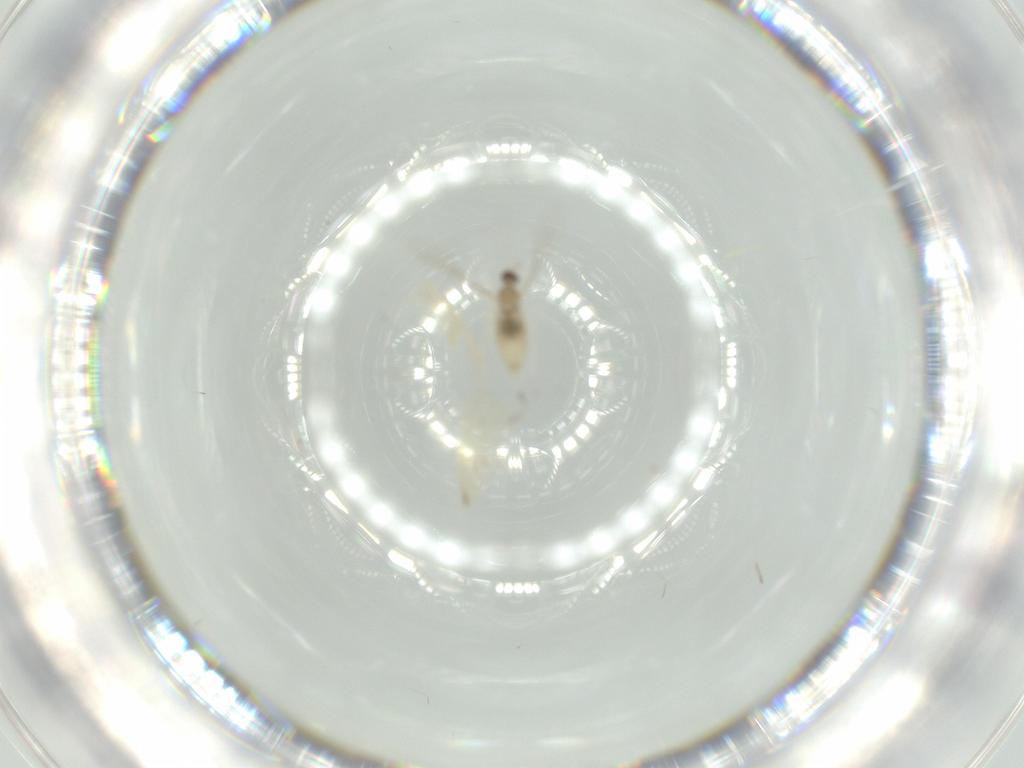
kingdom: Animalia
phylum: Arthropoda
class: Insecta
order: Diptera
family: Cecidomyiidae
